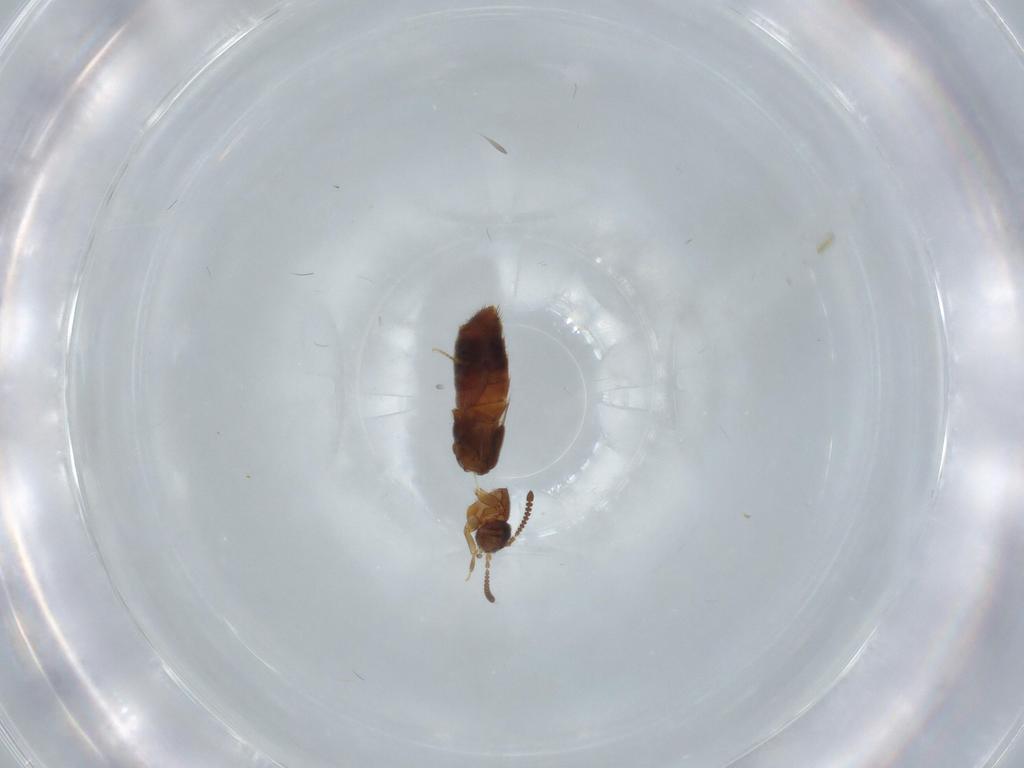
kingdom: Animalia
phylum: Arthropoda
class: Insecta
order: Coleoptera
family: Staphylinidae
